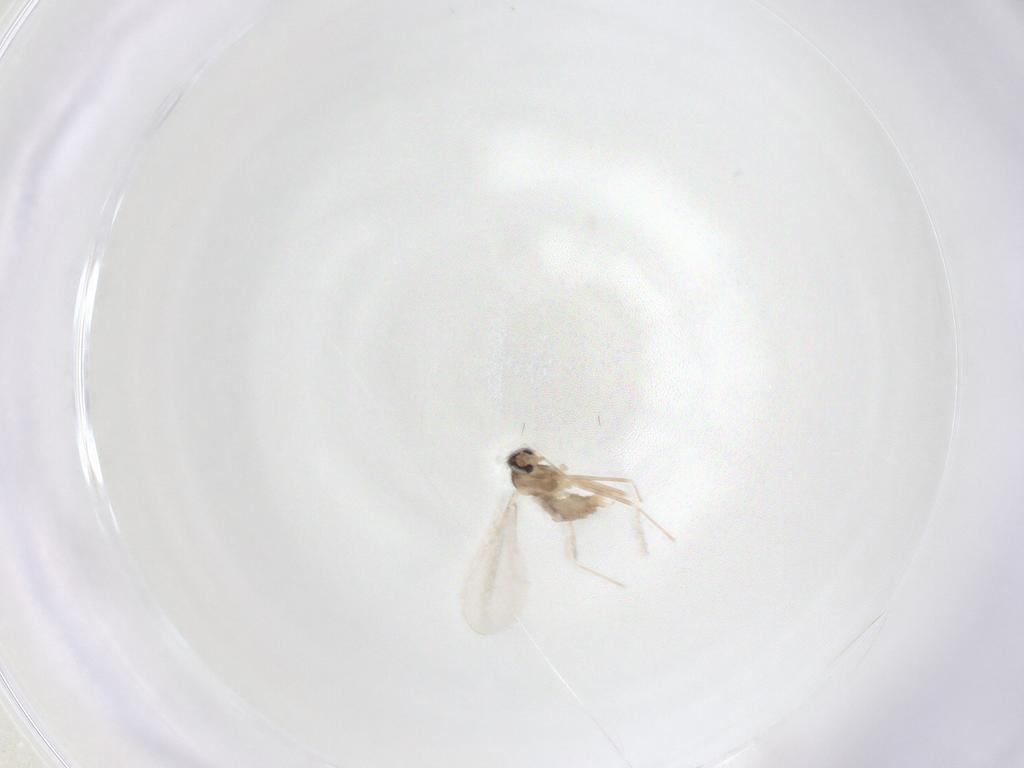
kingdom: Animalia
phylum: Arthropoda
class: Insecta
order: Diptera
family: Cecidomyiidae
